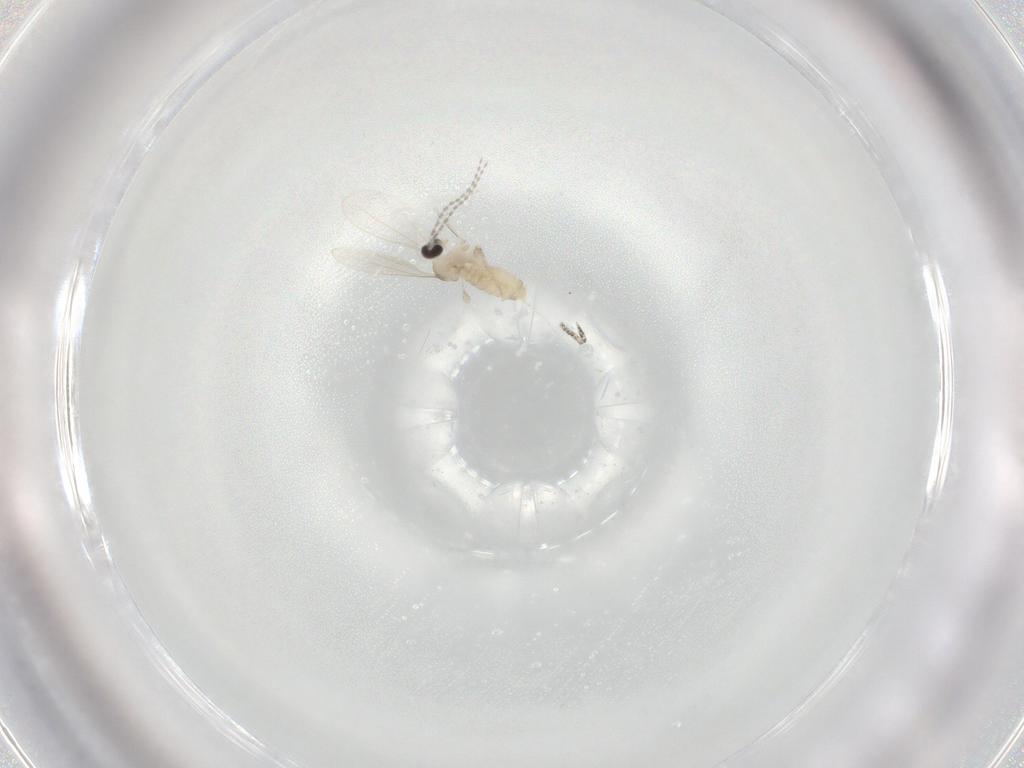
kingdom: Animalia
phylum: Arthropoda
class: Insecta
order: Diptera
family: Cecidomyiidae
